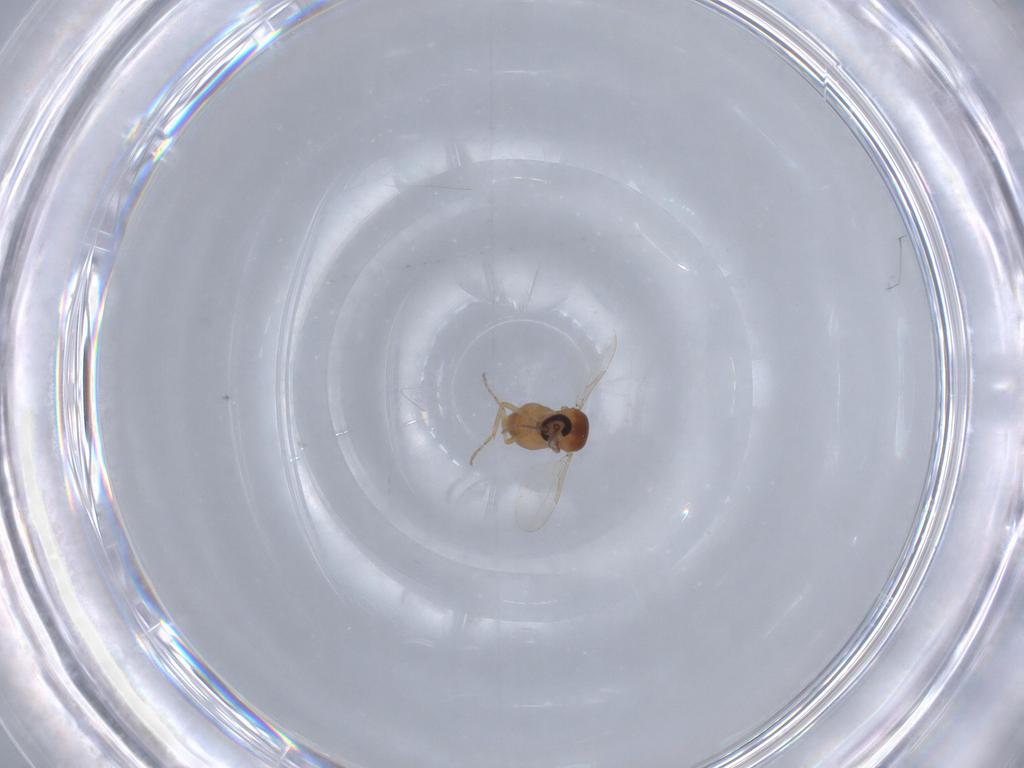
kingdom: Animalia
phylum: Arthropoda
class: Insecta
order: Diptera
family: Ceratopogonidae
